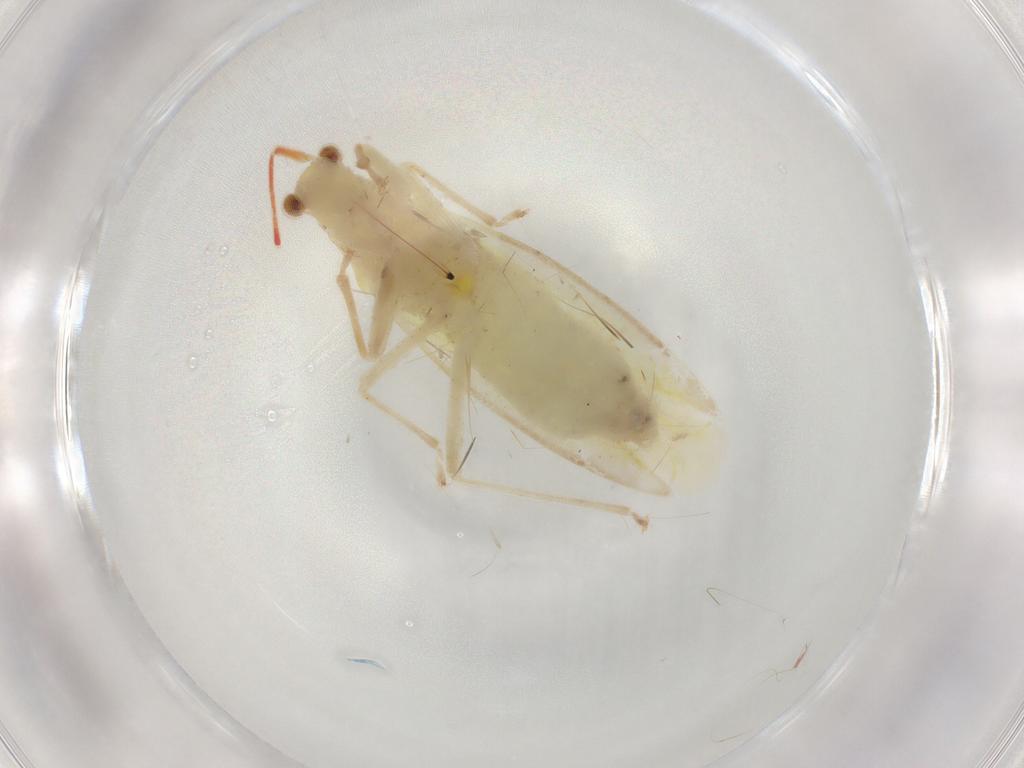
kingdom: Animalia
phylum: Arthropoda
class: Insecta
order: Hemiptera
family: Miridae
